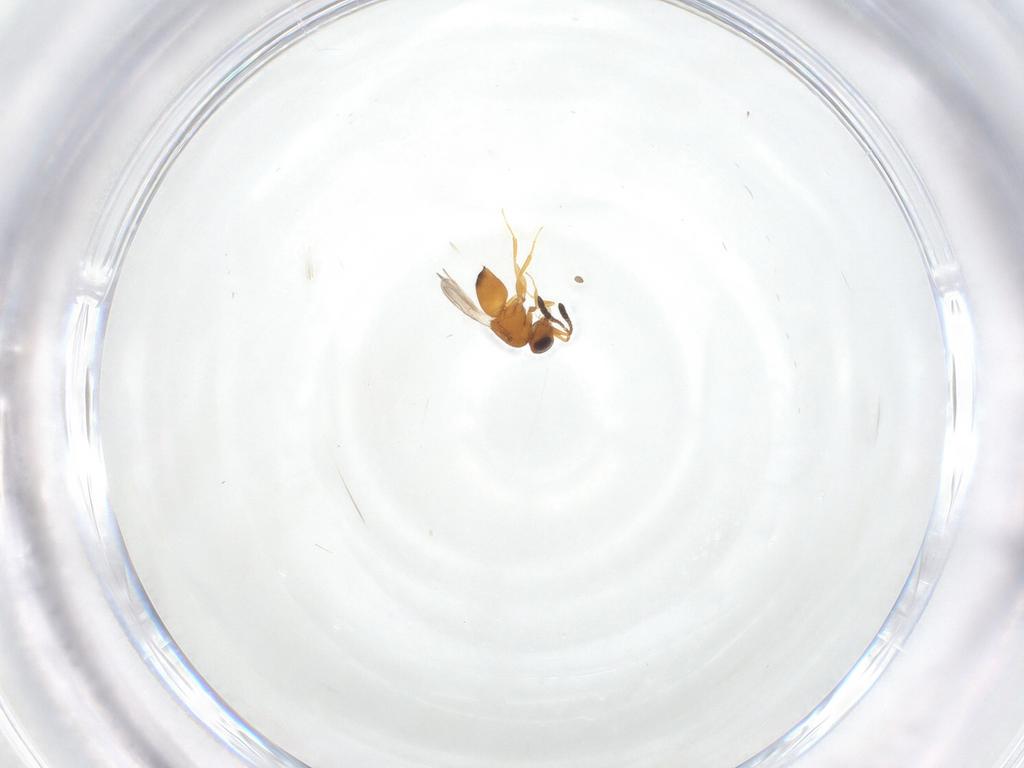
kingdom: Animalia
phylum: Arthropoda
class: Insecta
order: Hymenoptera
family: Ceraphronidae
